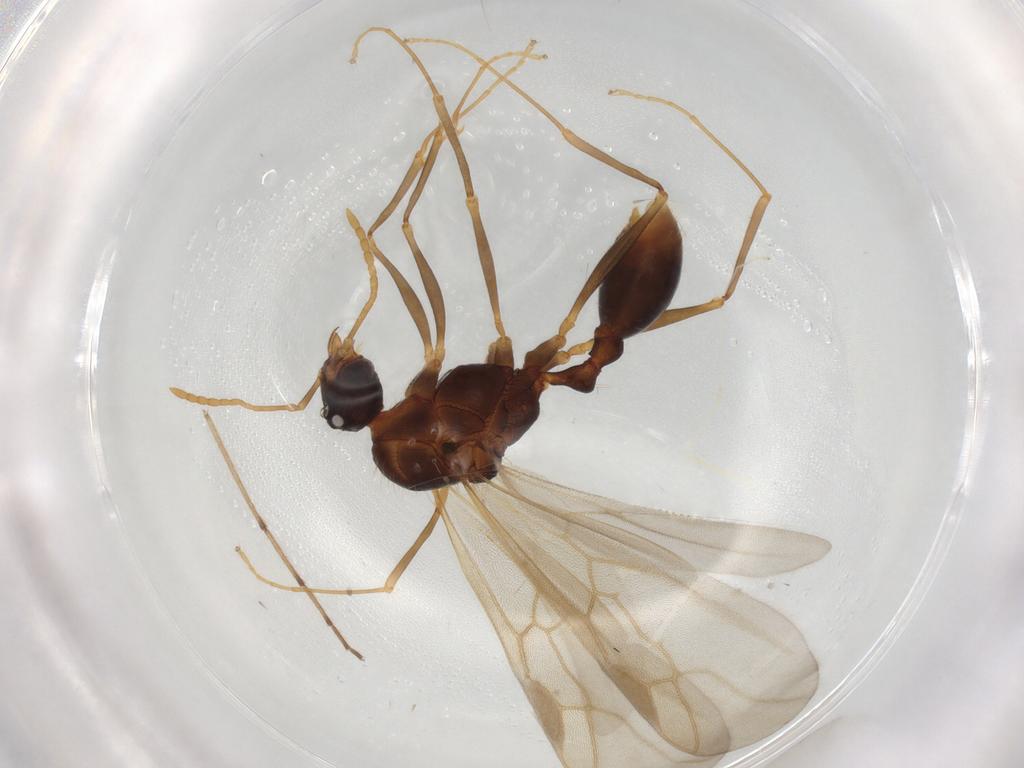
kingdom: Animalia
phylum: Arthropoda
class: Insecta
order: Hymenoptera
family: Formicidae
